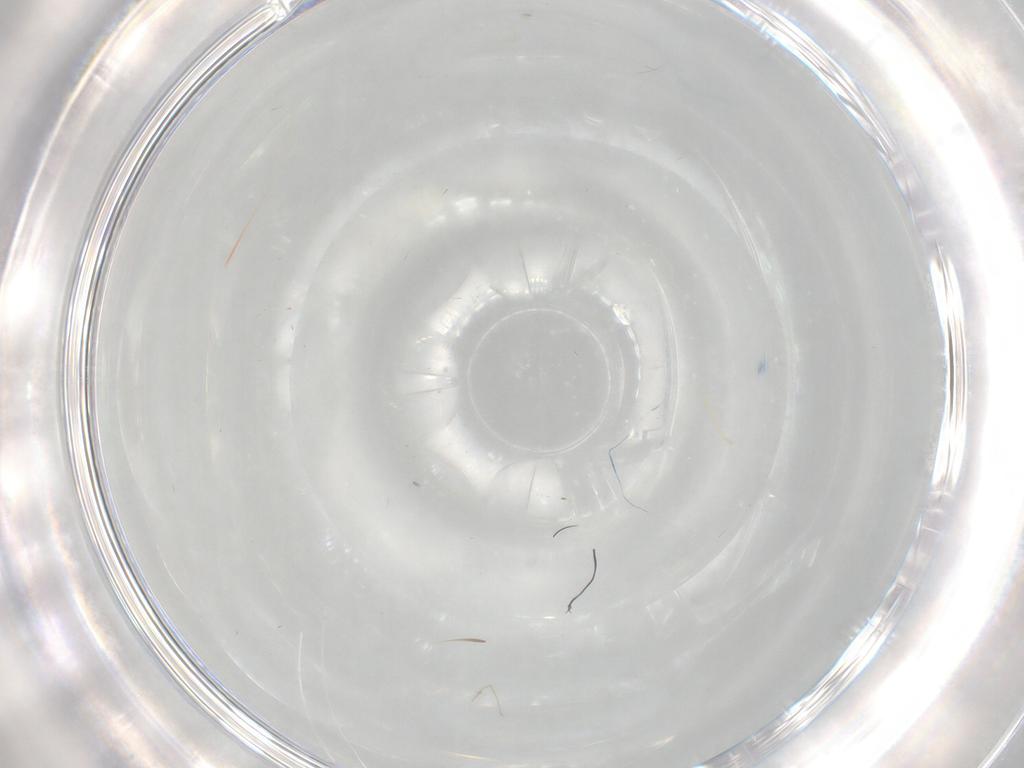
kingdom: Animalia
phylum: Arthropoda
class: Insecta
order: Diptera
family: Cecidomyiidae
